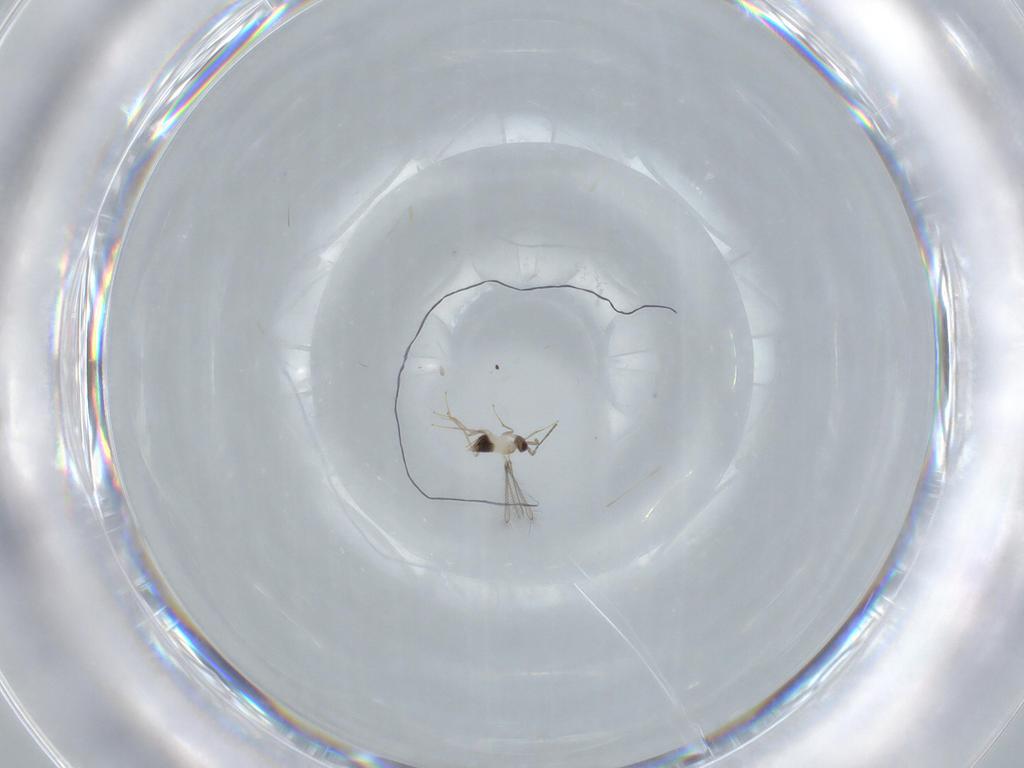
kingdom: Animalia
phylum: Arthropoda
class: Insecta
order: Hymenoptera
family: Mymaridae
